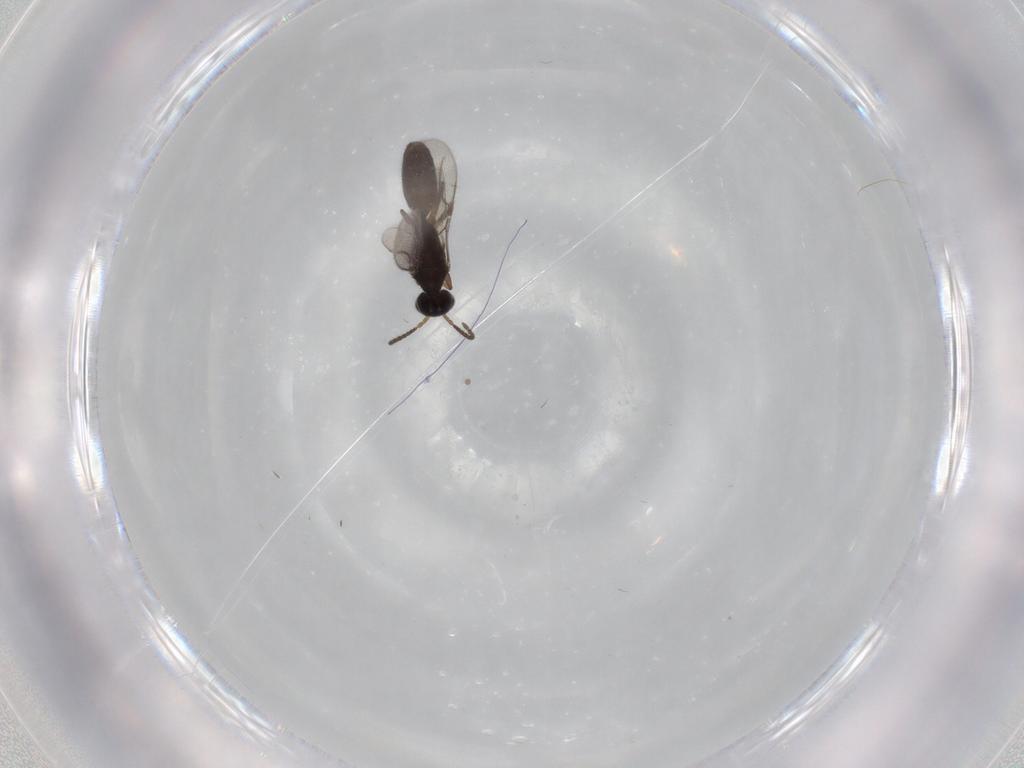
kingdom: Animalia
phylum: Arthropoda
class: Insecta
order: Hymenoptera
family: Bethylidae
